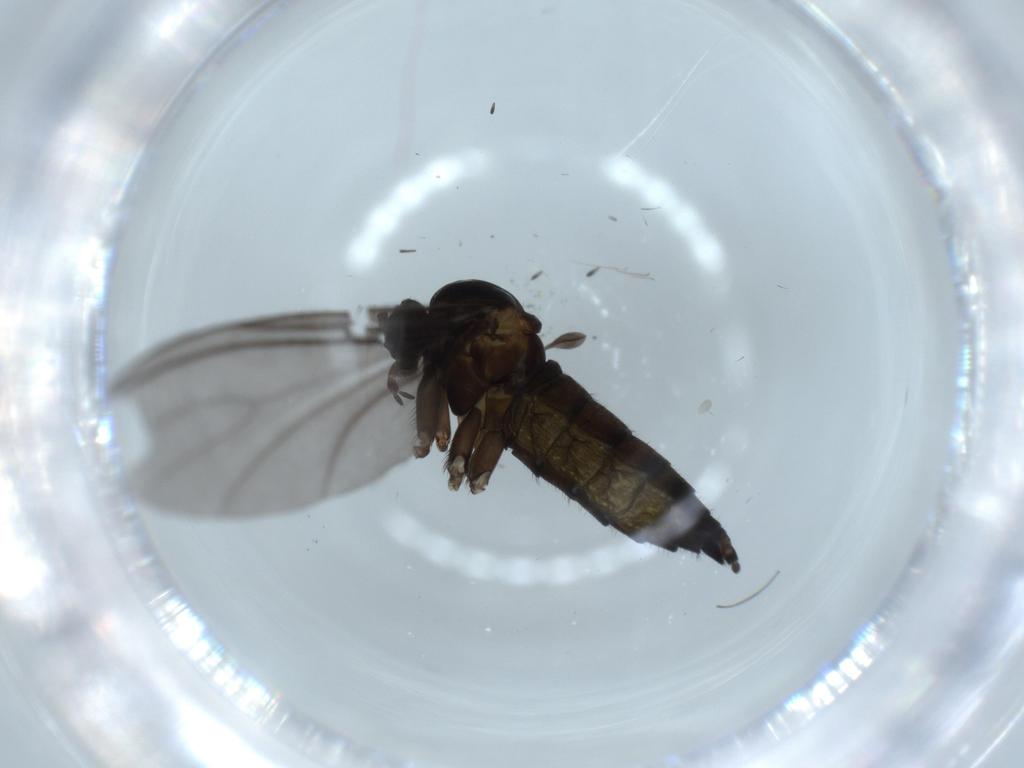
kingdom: Animalia
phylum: Arthropoda
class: Insecta
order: Diptera
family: Sciaridae
